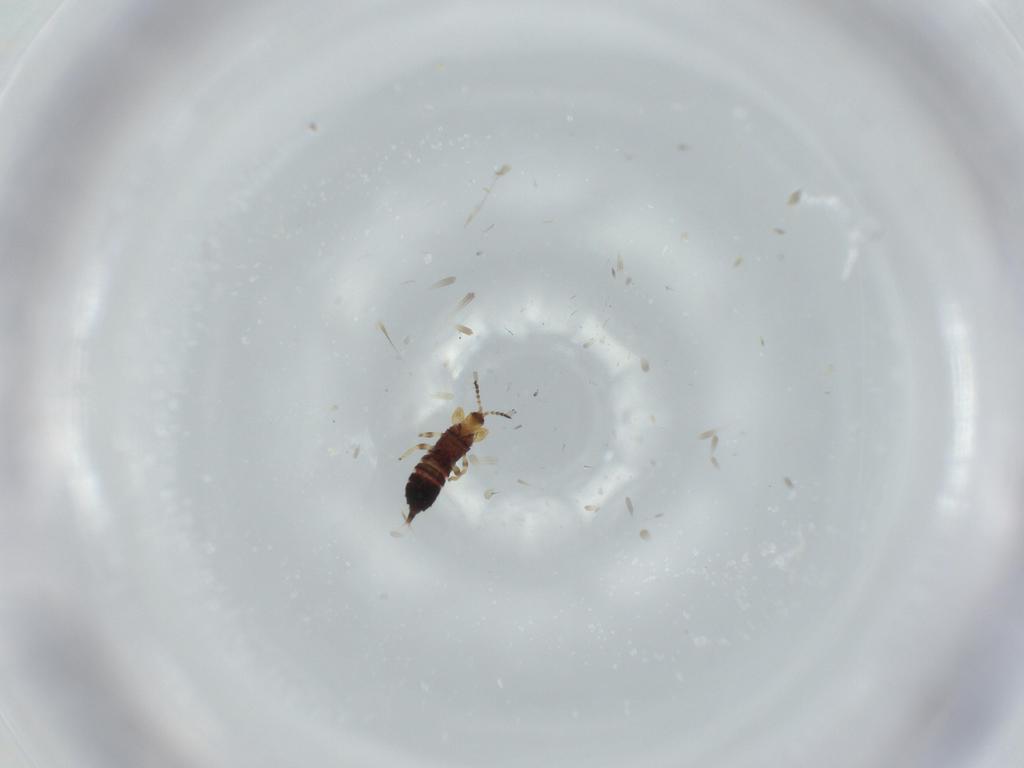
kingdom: Animalia
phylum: Arthropoda
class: Insecta
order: Thysanoptera
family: Phlaeothripidae
